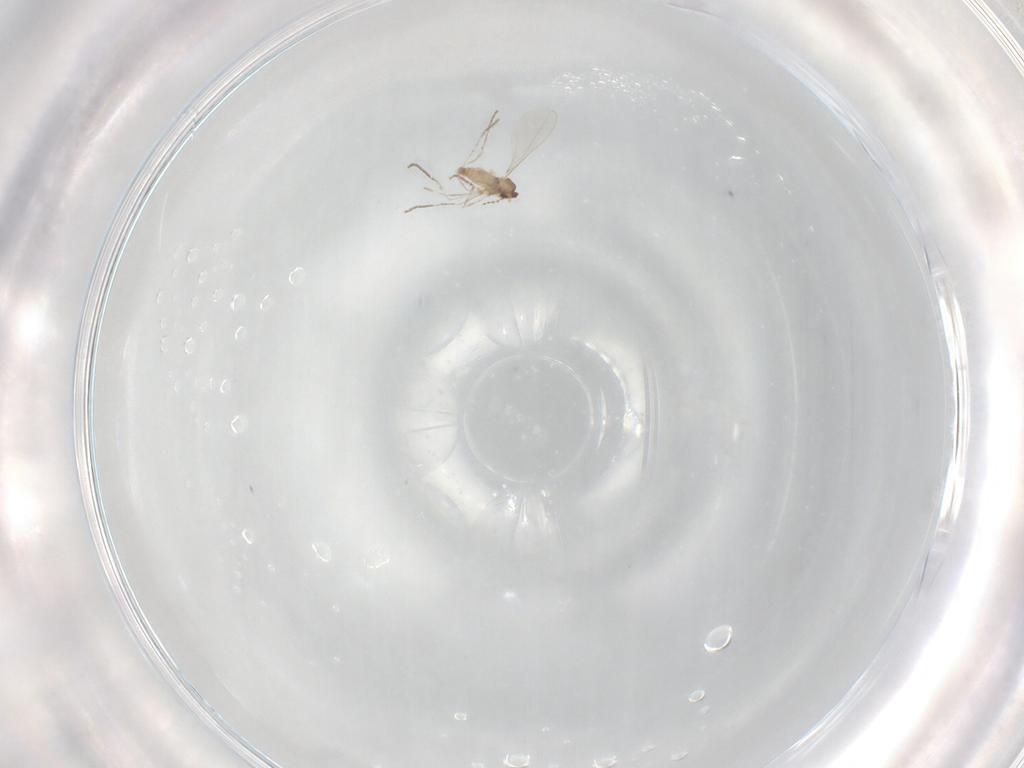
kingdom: Animalia
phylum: Arthropoda
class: Insecta
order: Diptera
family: Cecidomyiidae
